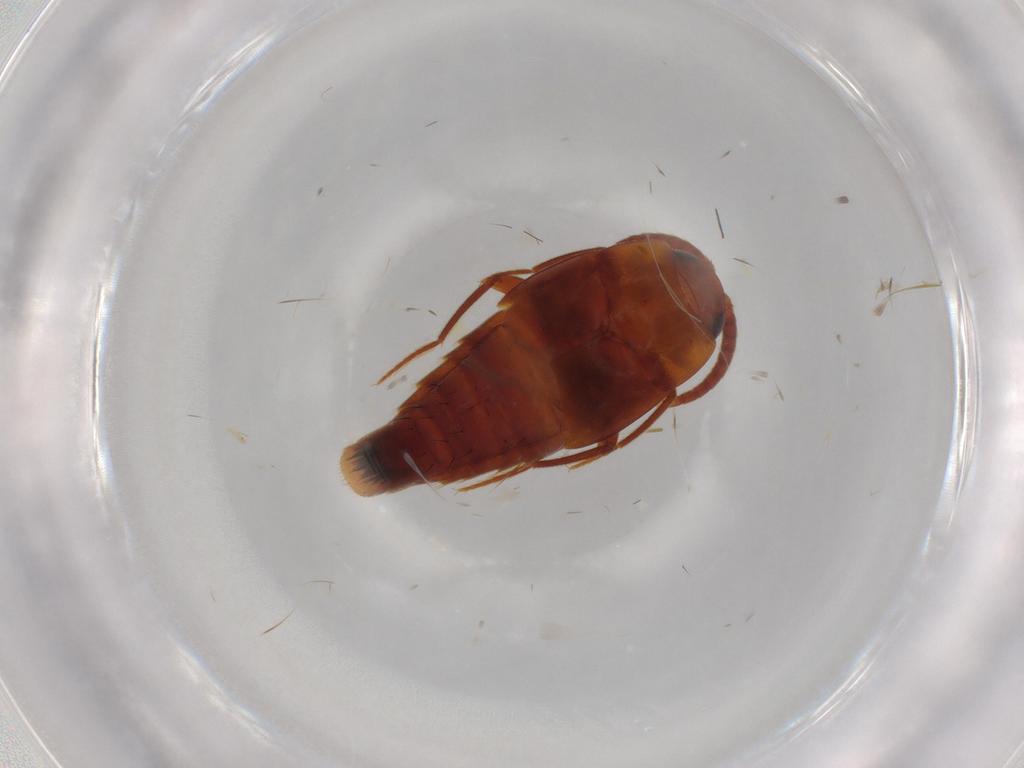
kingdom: Animalia
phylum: Arthropoda
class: Insecta
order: Coleoptera
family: Staphylinidae
